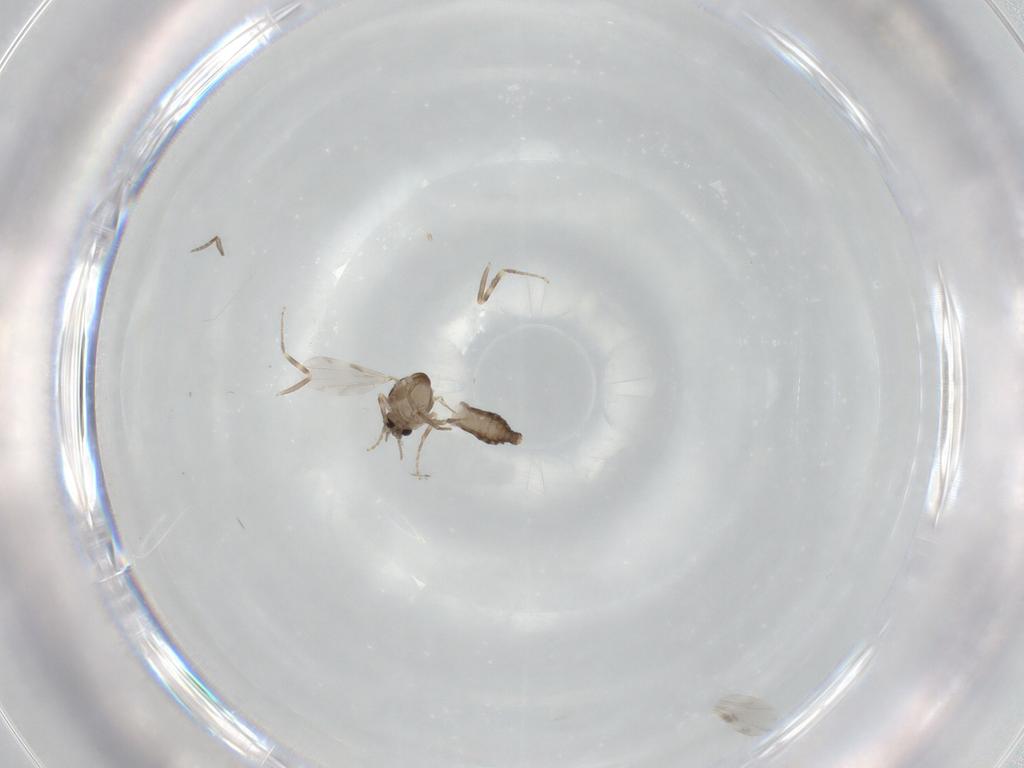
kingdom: Animalia
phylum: Arthropoda
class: Insecta
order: Diptera
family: Ceratopogonidae
